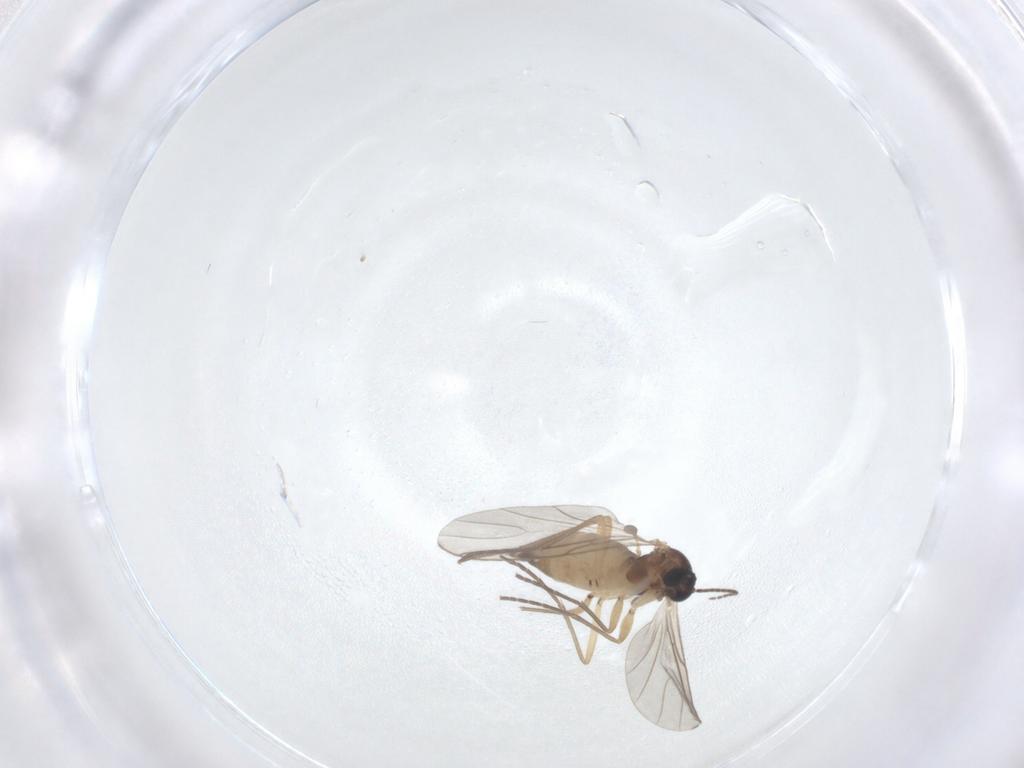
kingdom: Animalia
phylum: Arthropoda
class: Insecta
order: Diptera
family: Sciaridae
